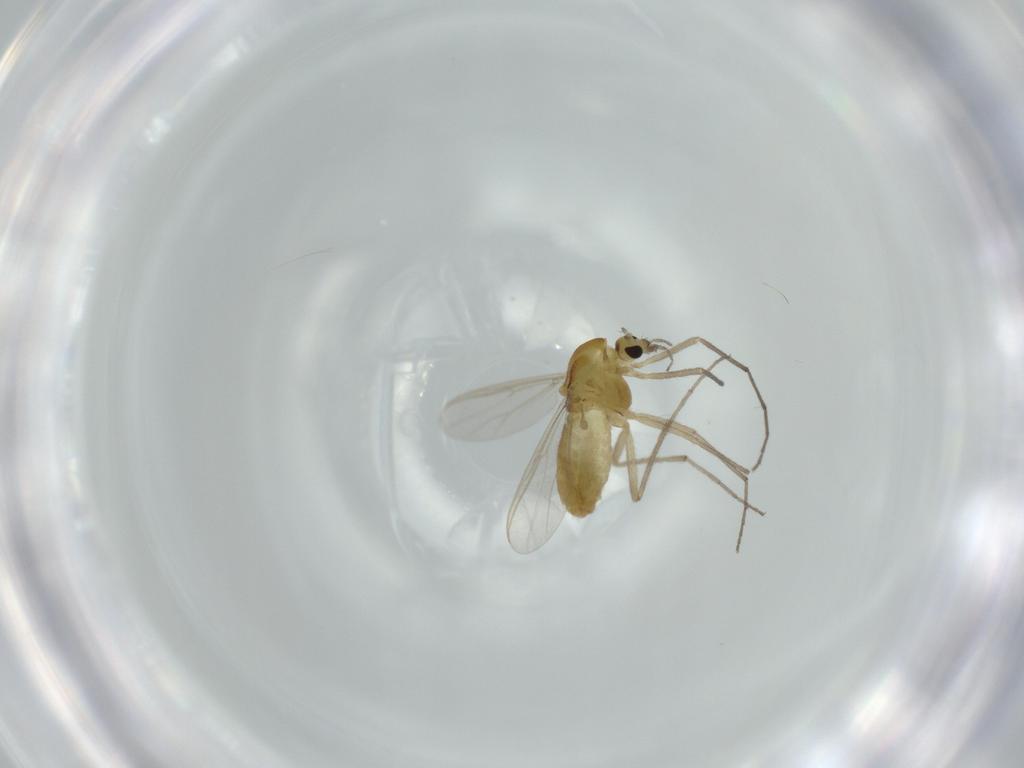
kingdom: Animalia
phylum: Arthropoda
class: Insecta
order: Diptera
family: Chironomidae
